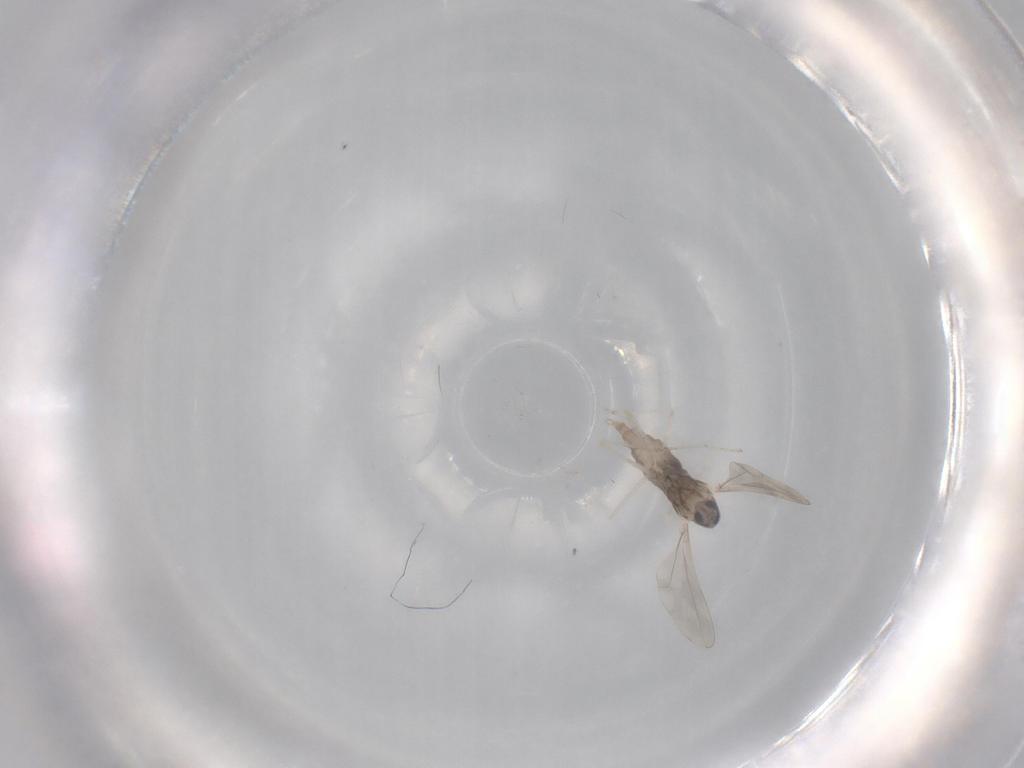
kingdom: Animalia
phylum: Arthropoda
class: Insecta
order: Diptera
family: Cecidomyiidae
